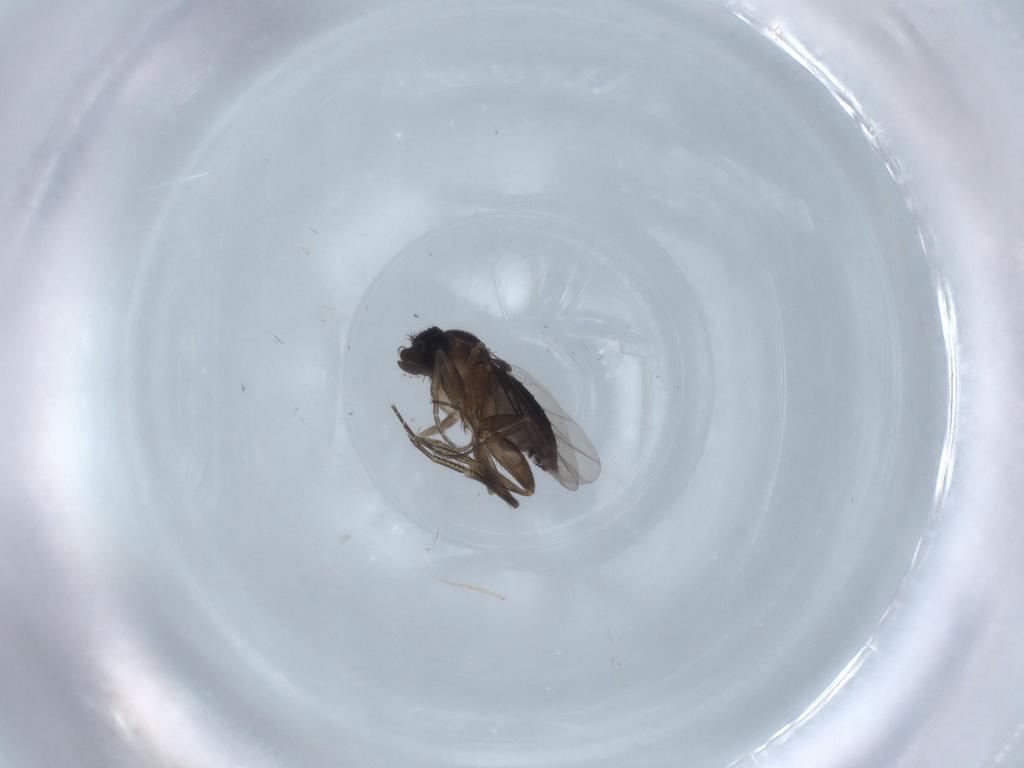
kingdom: Animalia
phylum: Arthropoda
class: Insecta
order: Diptera
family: Phoridae
